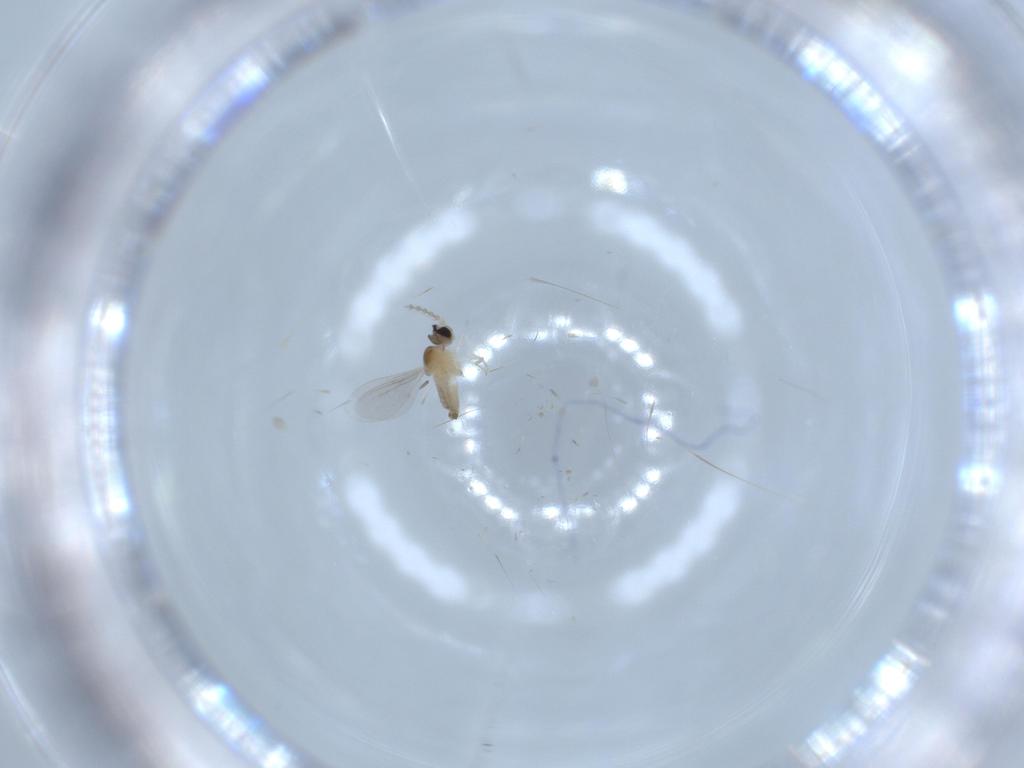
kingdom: Animalia
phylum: Arthropoda
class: Insecta
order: Diptera
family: Cecidomyiidae
